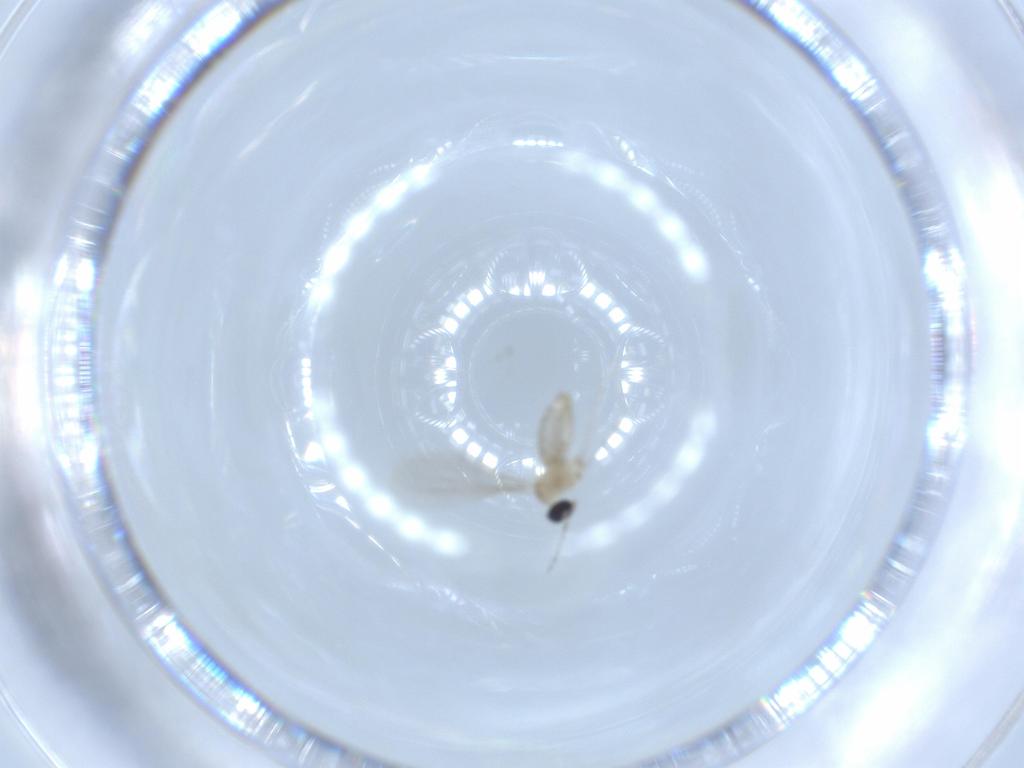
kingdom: Animalia
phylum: Arthropoda
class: Insecta
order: Diptera
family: Cecidomyiidae
